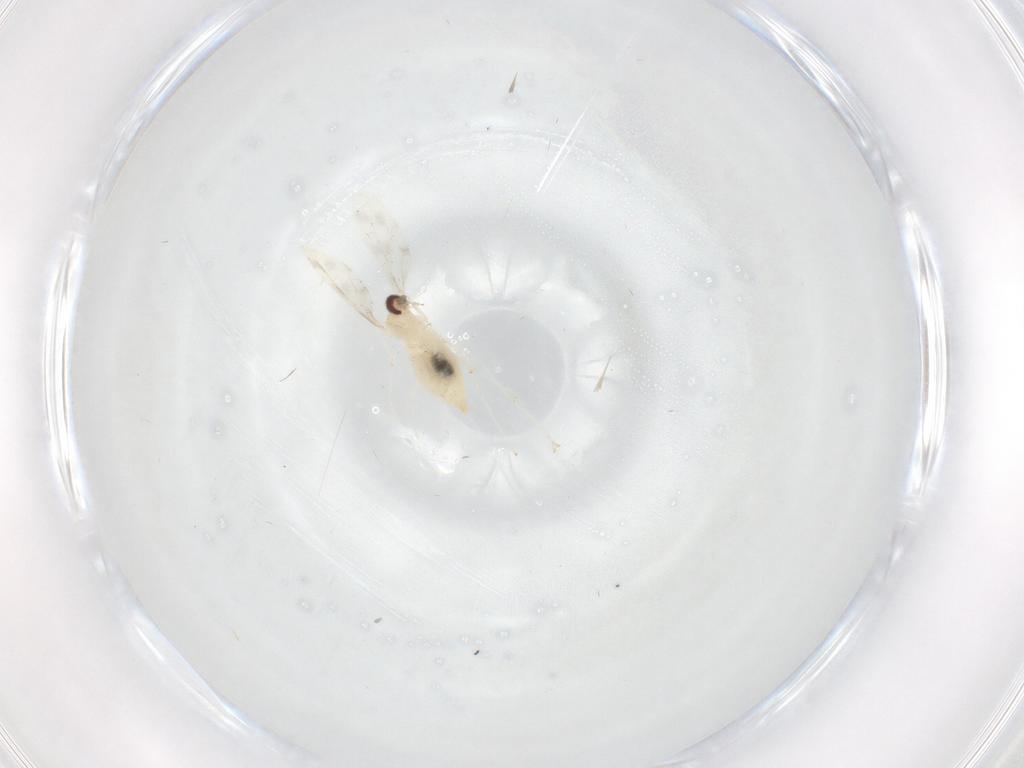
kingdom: Animalia
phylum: Arthropoda
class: Insecta
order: Diptera
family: Cecidomyiidae
